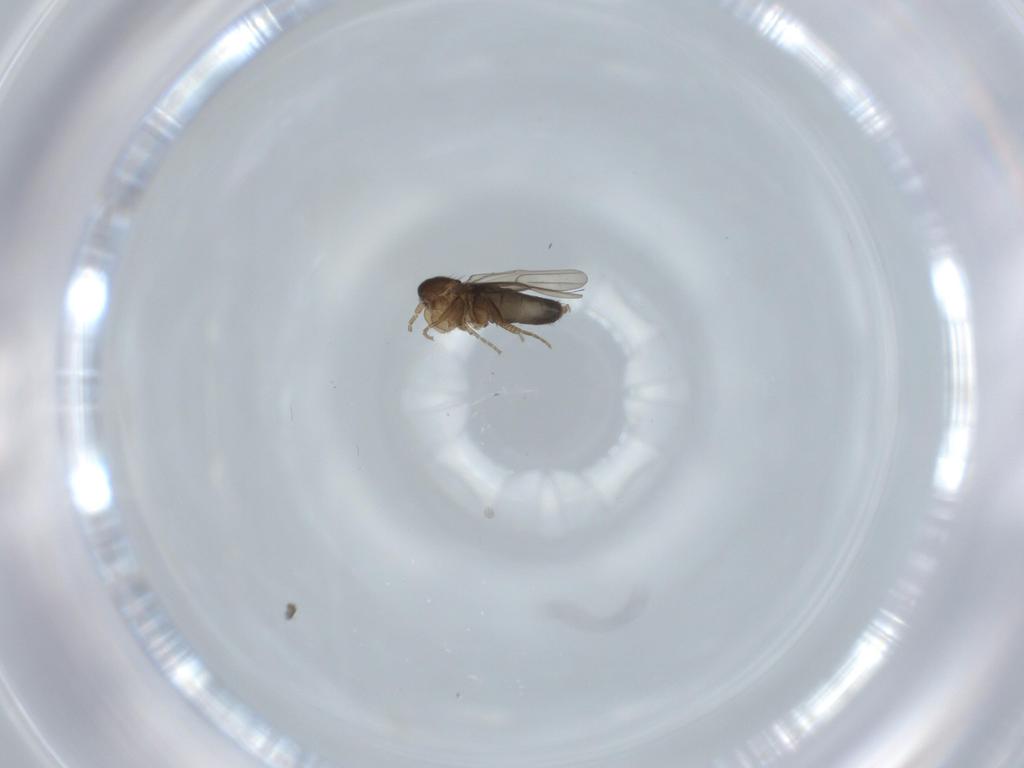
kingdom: Animalia
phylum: Arthropoda
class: Insecta
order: Diptera
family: Phoridae
